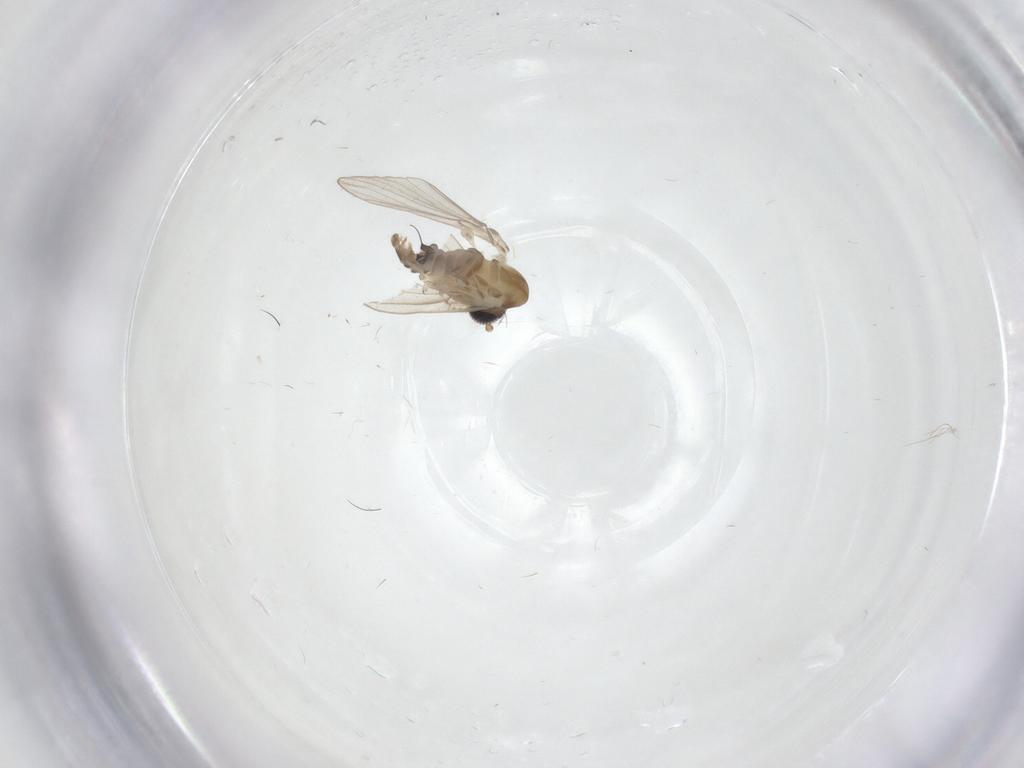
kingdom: Animalia
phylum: Arthropoda
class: Insecta
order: Diptera
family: Psychodidae
